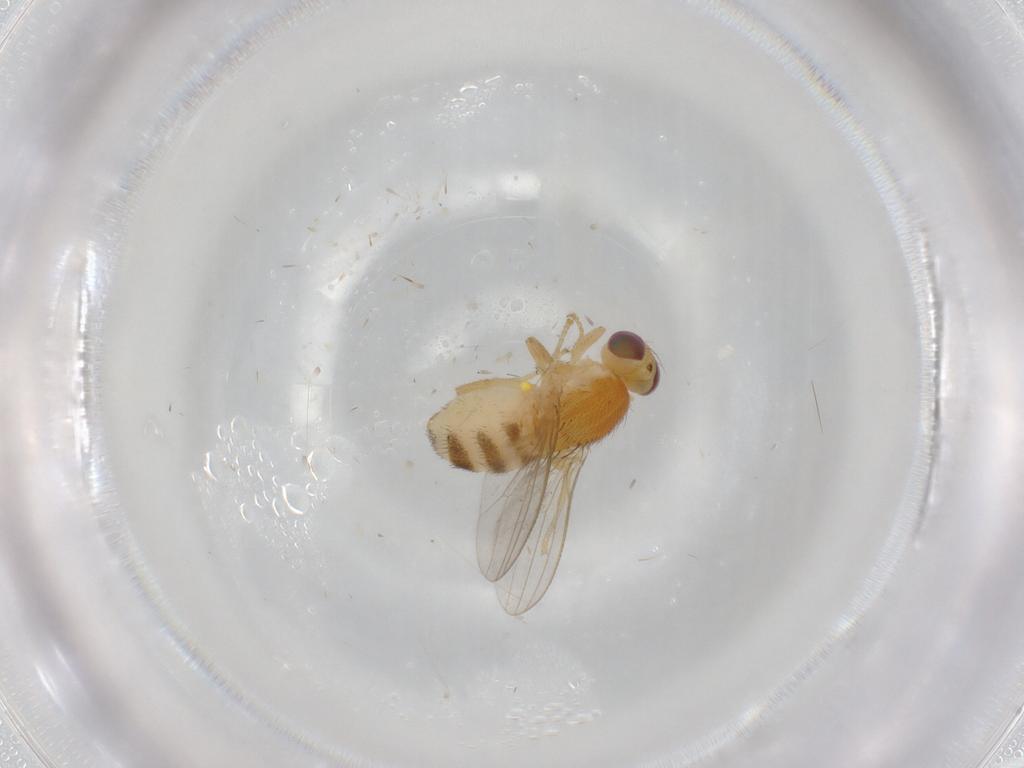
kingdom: Animalia
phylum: Arthropoda
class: Insecta
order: Diptera
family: Chyromyidae
